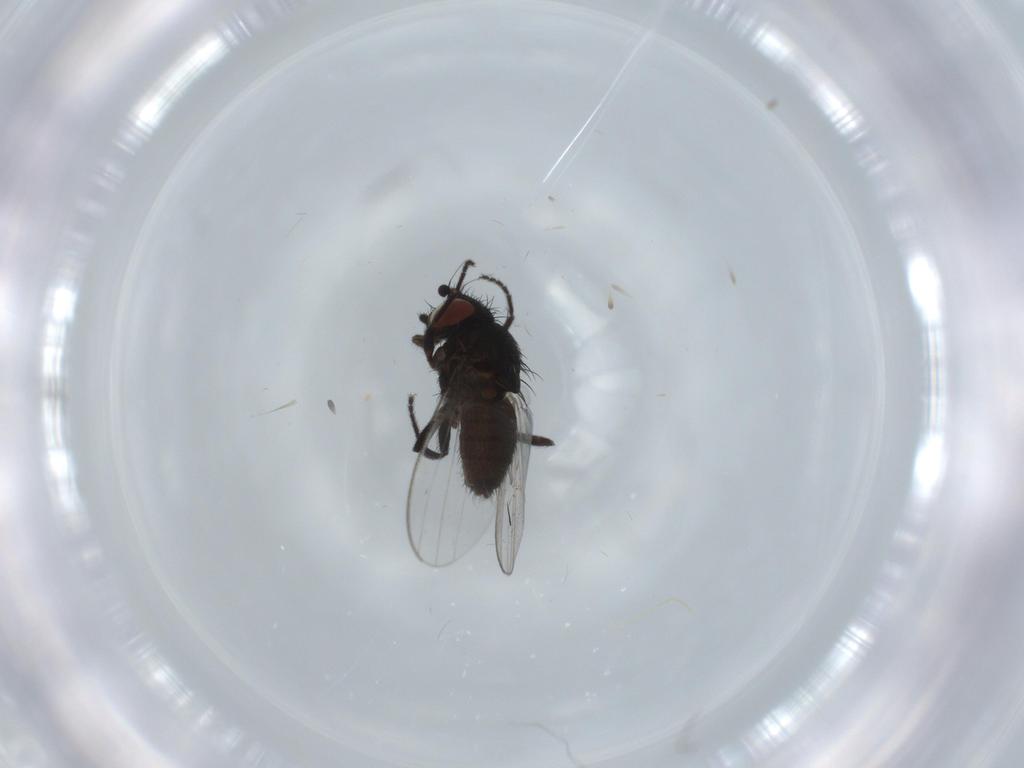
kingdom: Animalia
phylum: Arthropoda
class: Insecta
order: Diptera
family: Milichiidae
